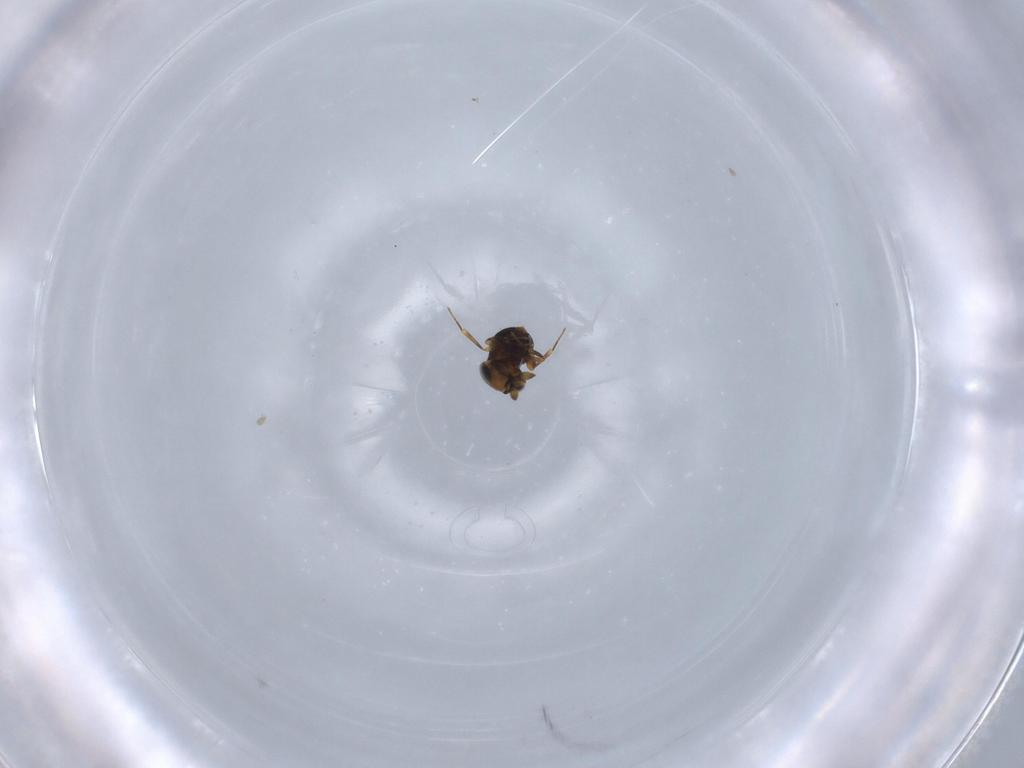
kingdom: Animalia
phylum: Arthropoda
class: Insecta
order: Hymenoptera
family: Scelionidae
